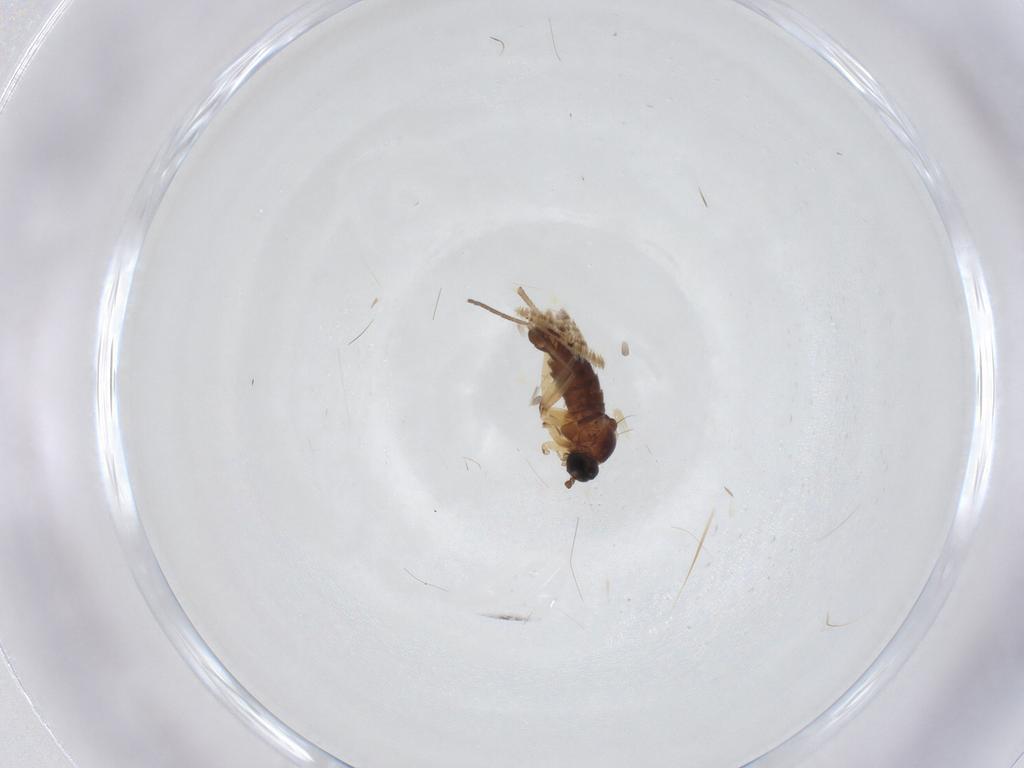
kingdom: Animalia
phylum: Arthropoda
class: Insecta
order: Diptera
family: Sciaridae
